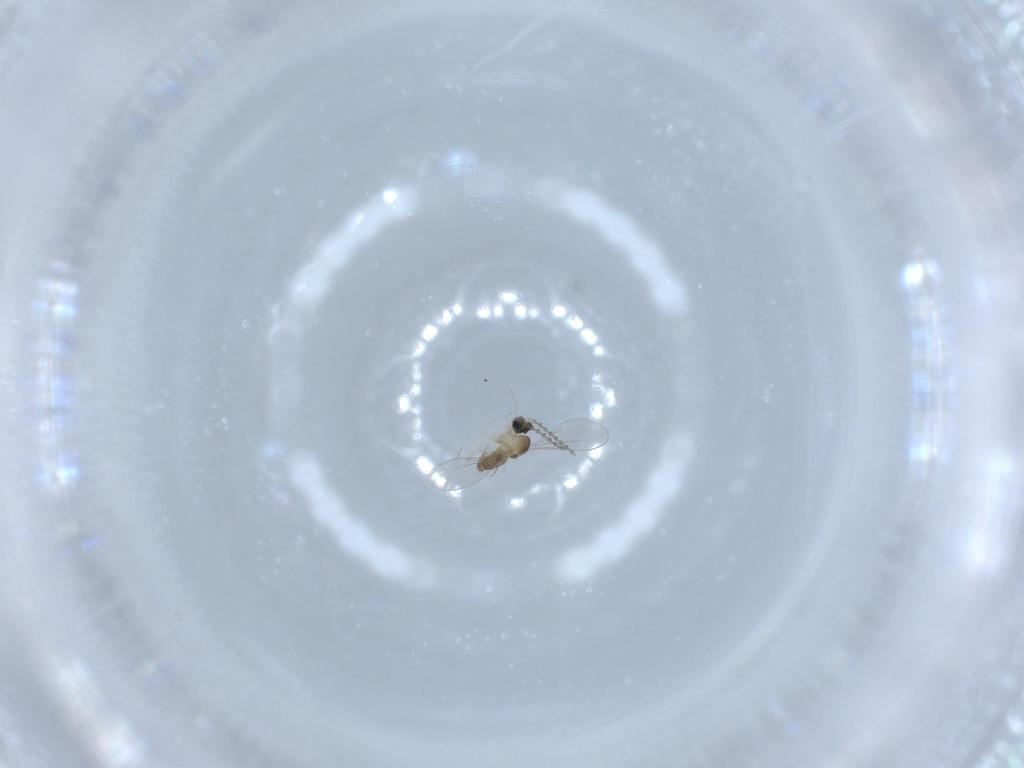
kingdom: Animalia
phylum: Arthropoda
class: Insecta
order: Diptera
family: Cecidomyiidae
